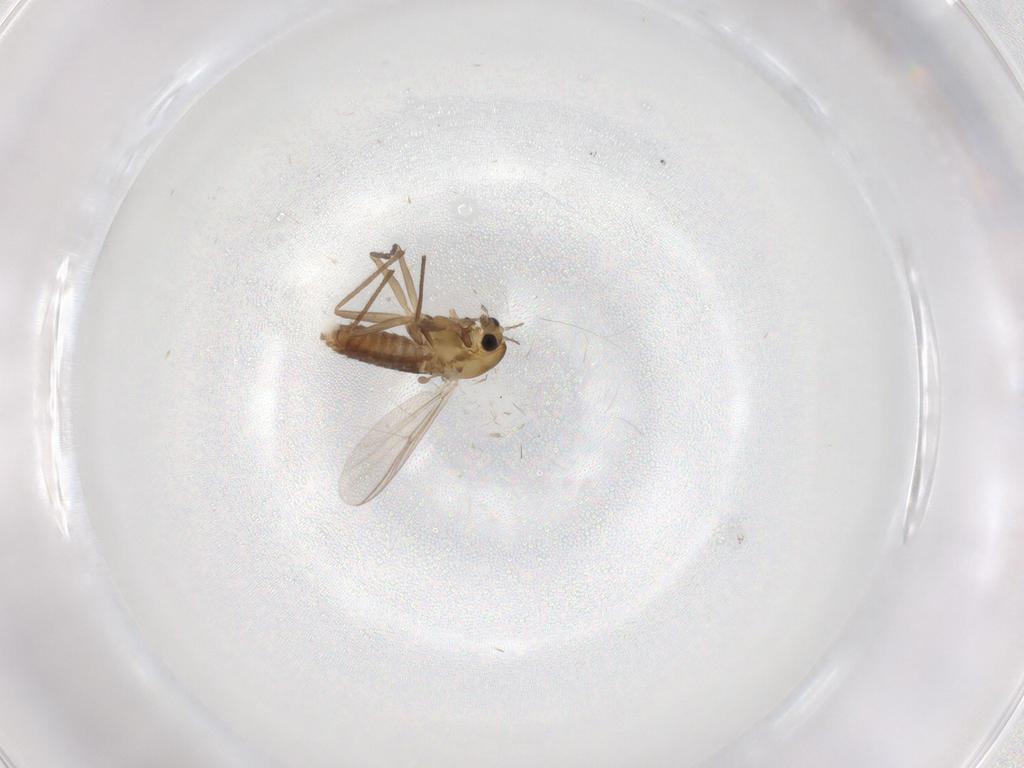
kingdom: Animalia
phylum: Arthropoda
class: Insecta
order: Diptera
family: Chironomidae
